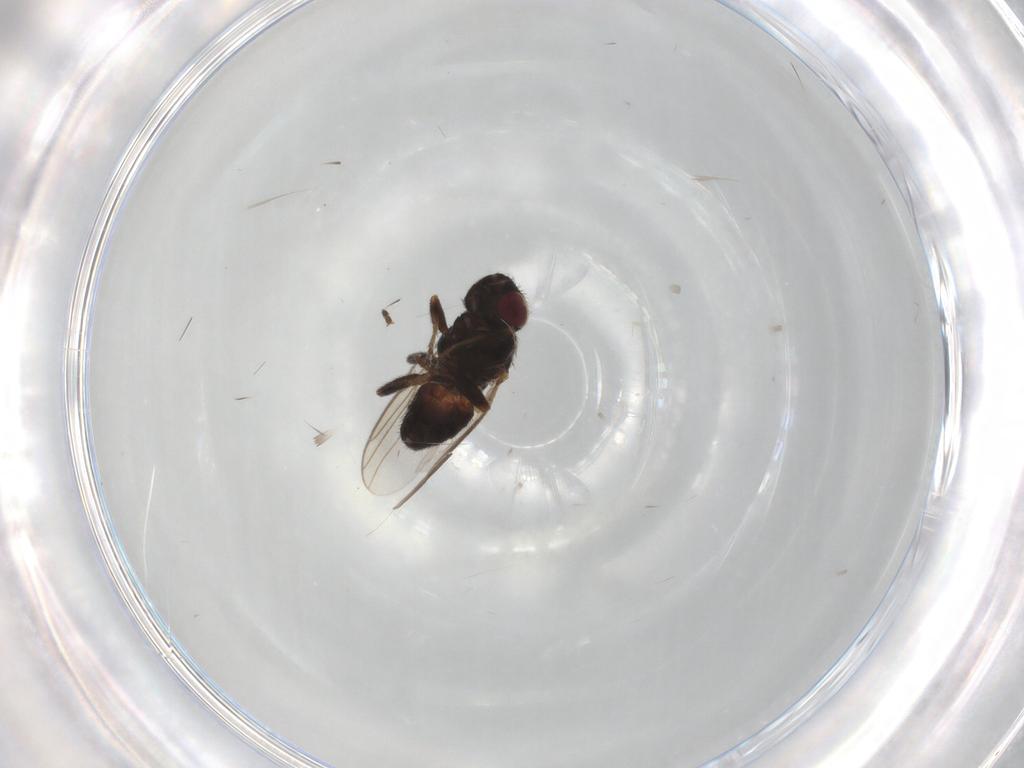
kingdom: Animalia
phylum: Arthropoda
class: Insecta
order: Diptera
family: Chloropidae
